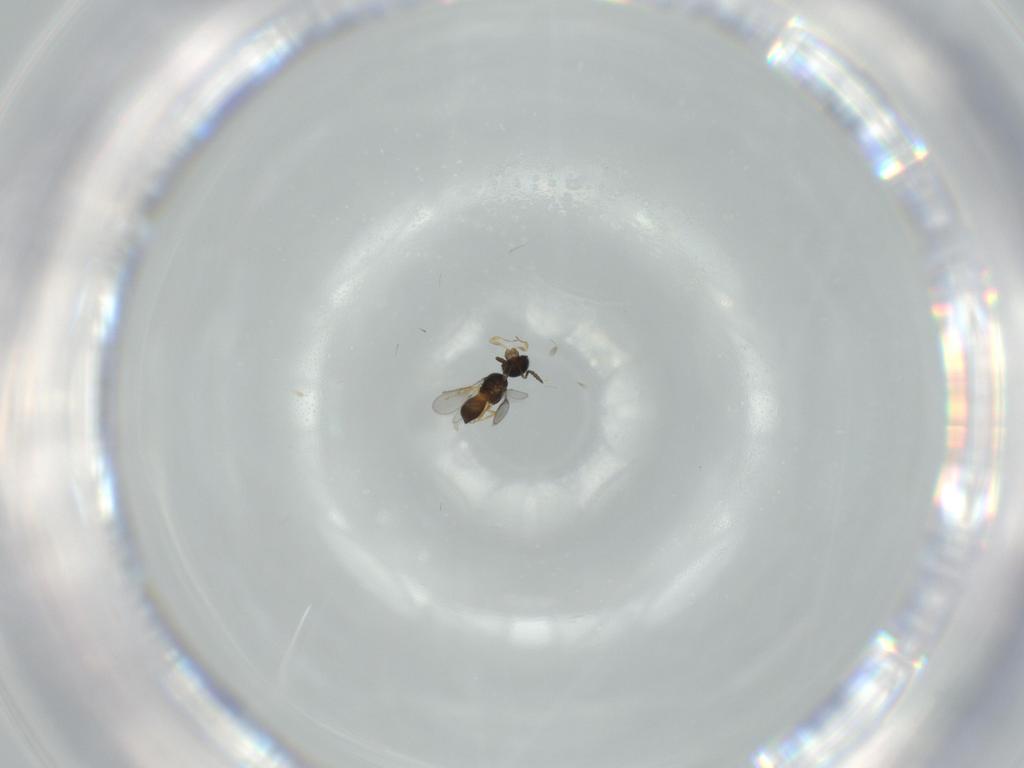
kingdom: Animalia
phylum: Arthropoda
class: Insecta
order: Hymenoptera
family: Scelionidae
